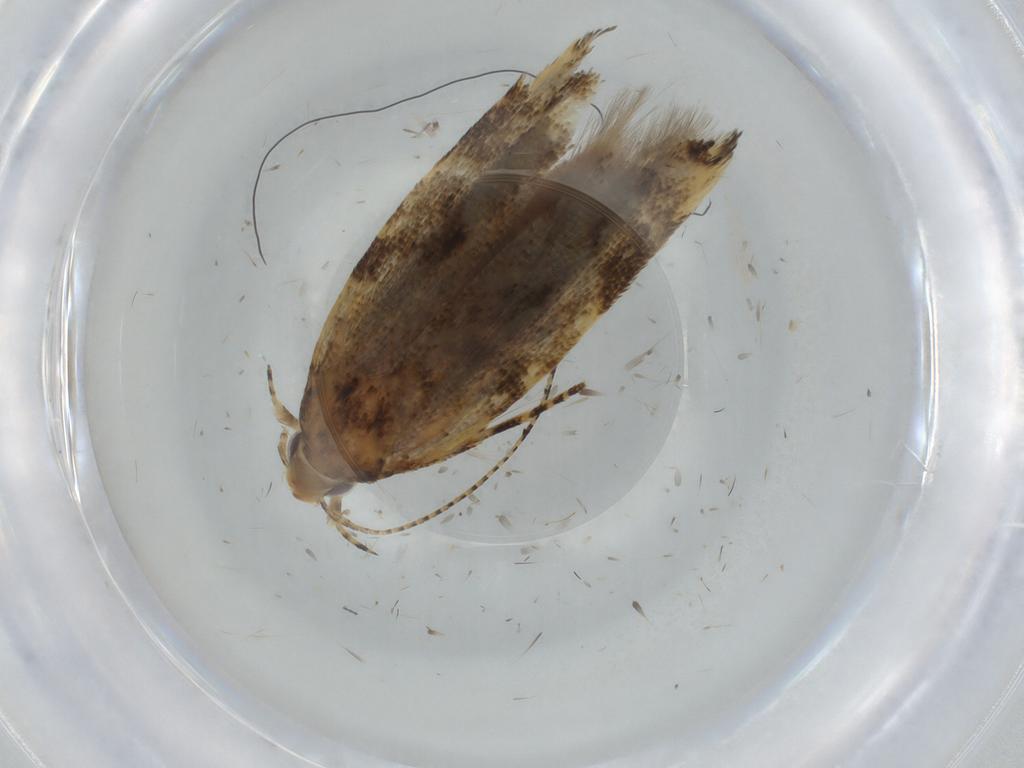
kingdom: Animalia
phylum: Arthropoda
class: Insecta
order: Lepidoptera
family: Gelechiidae
